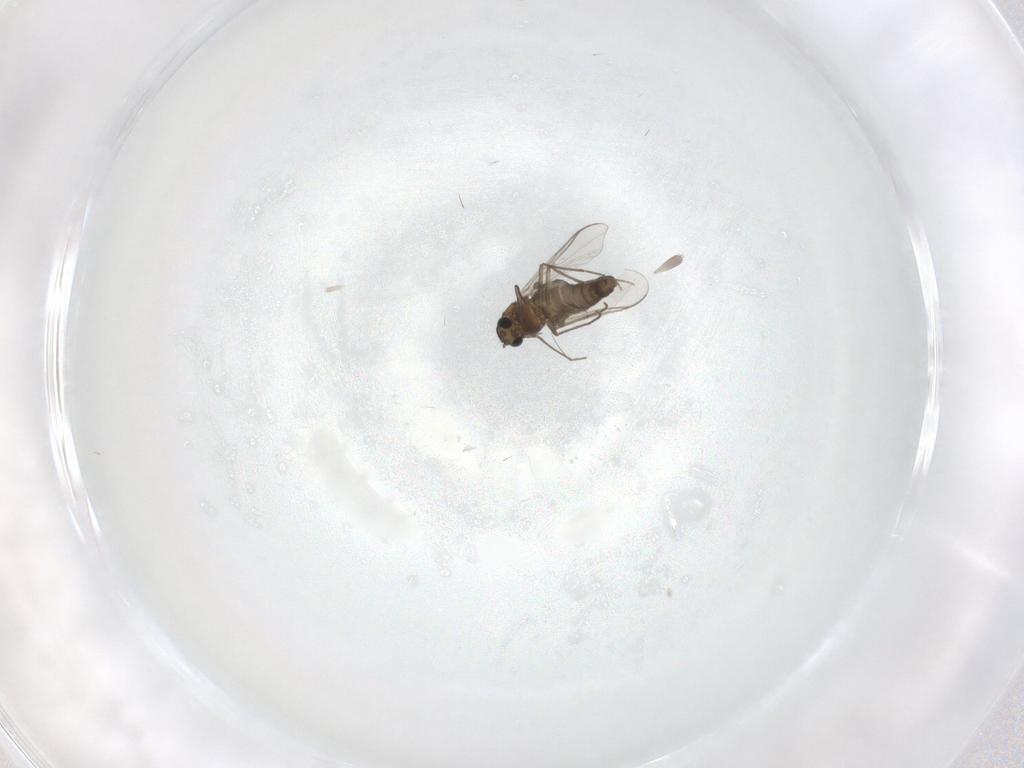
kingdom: Animalia
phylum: Arthropoda
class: Insecta
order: Diptera
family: Chironomidae
